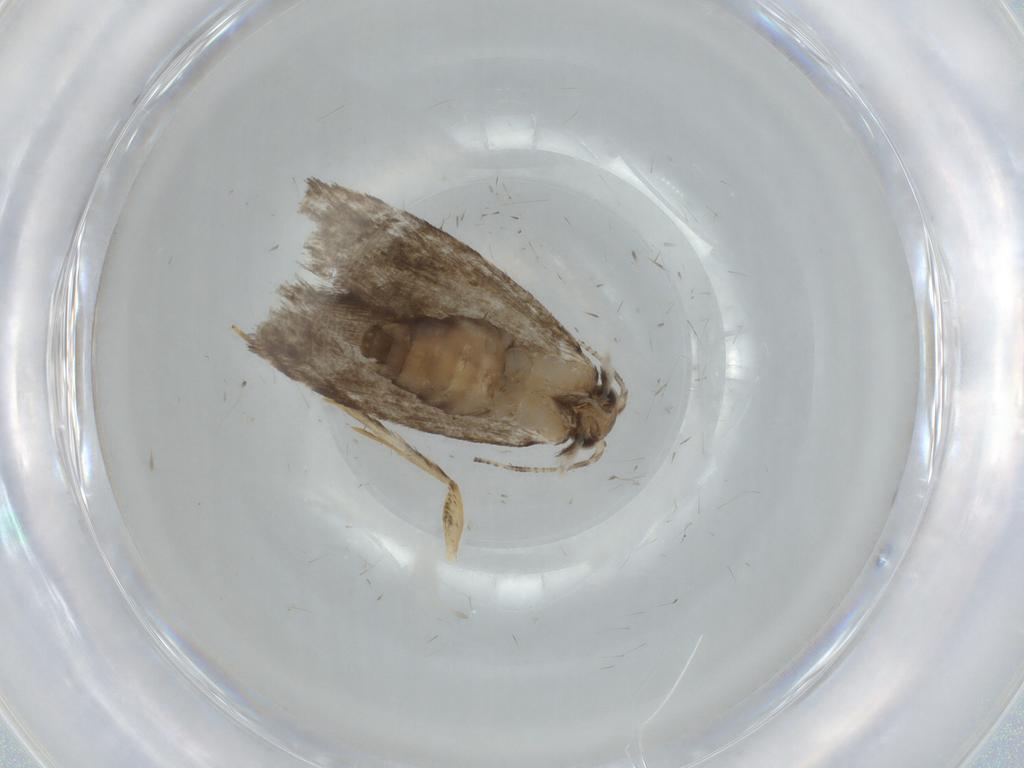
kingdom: Animalia
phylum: Arthropoda
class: Insecta
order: Lepidoptera
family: Tineidae
